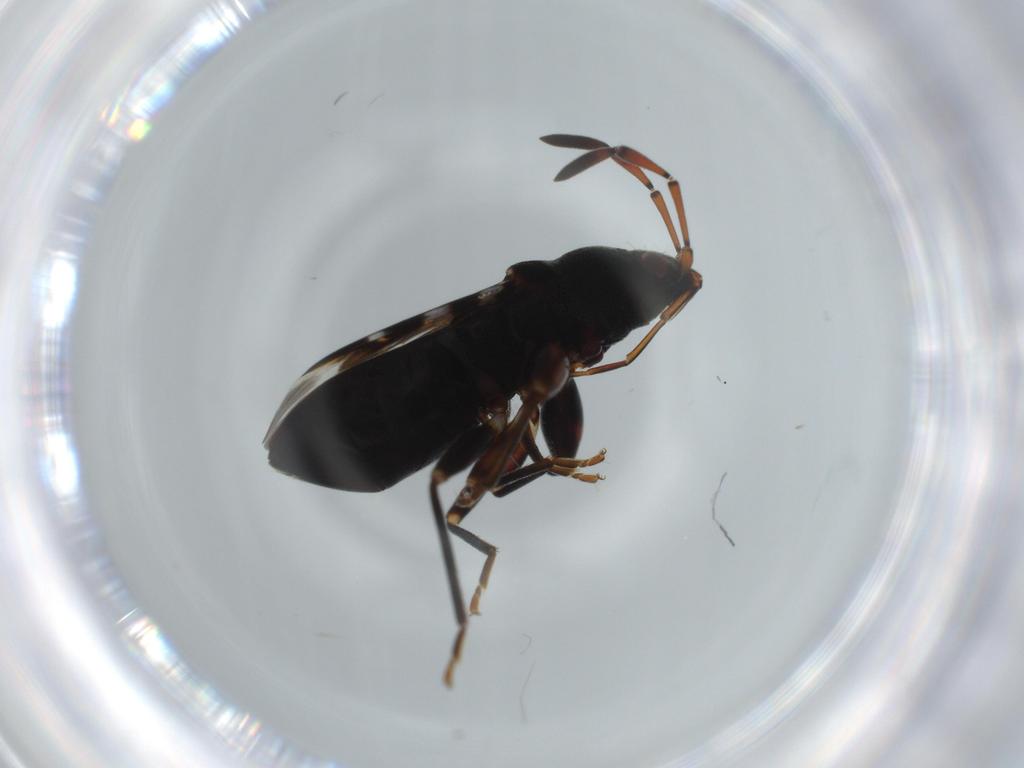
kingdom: Animalia
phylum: Arthropoda
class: Insecta
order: Hemiptera
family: Rhyparochromidae
